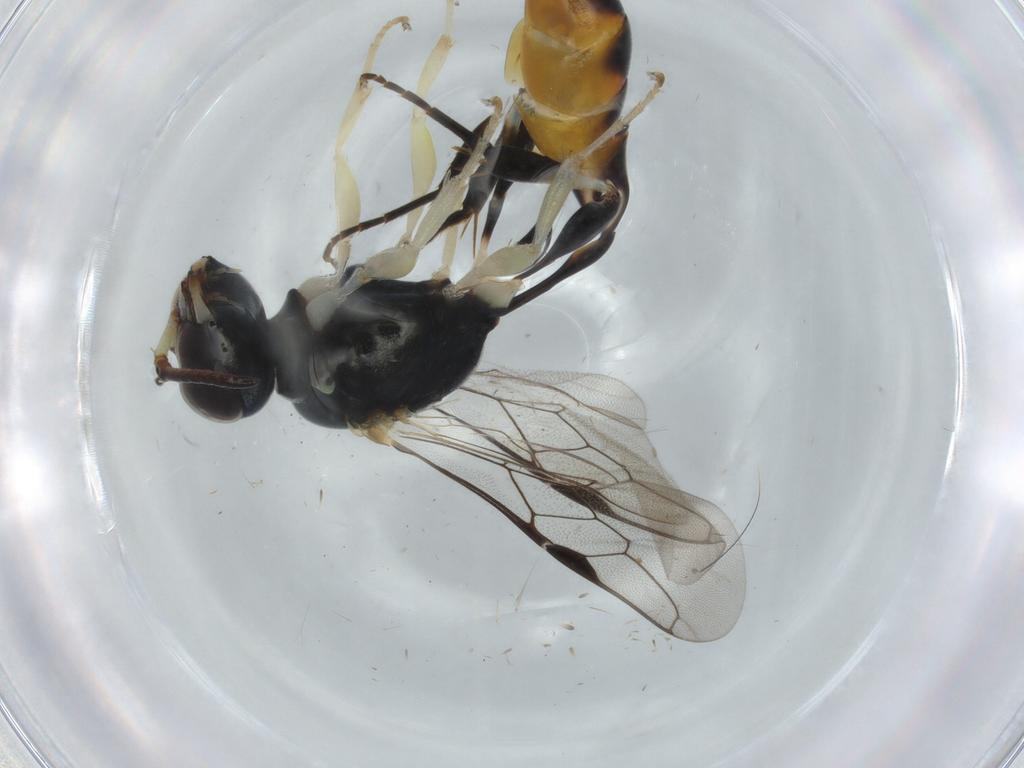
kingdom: Animalia
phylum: Arthropoda
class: Insecta
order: Hymenoptera
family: Crabronidae
